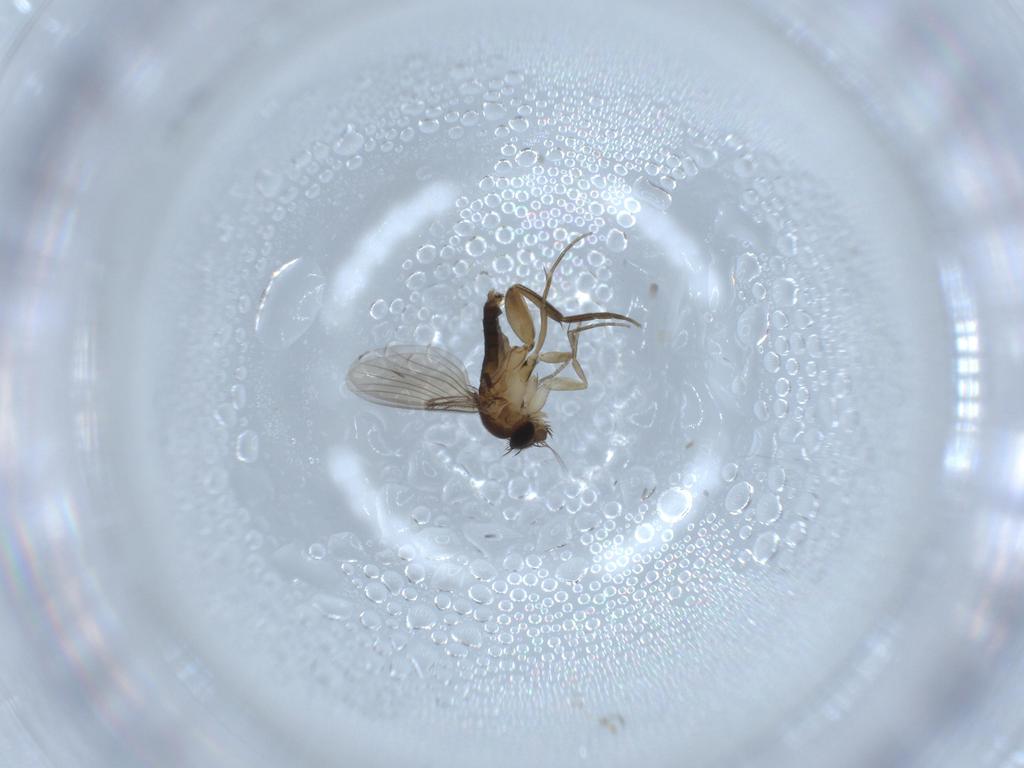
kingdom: Animalia
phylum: Arthropoda
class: Insecta
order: Diptera
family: Phoridae
